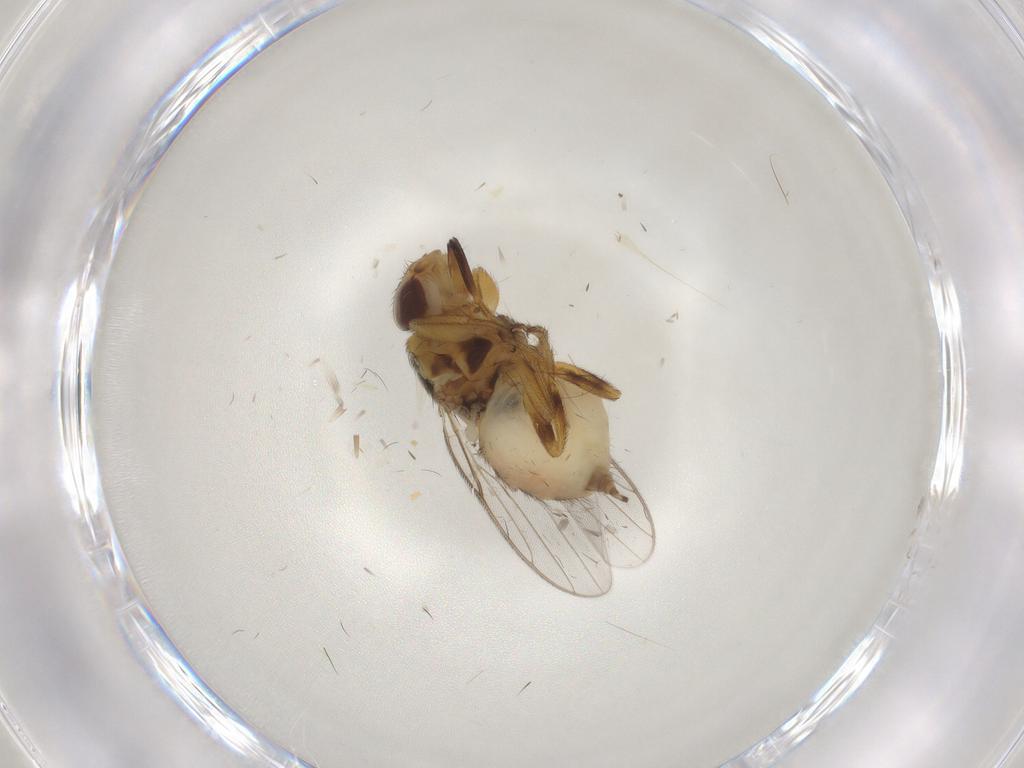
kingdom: Animalia
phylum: Arthropoda
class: Insecta
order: Diptera
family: Chloropidae
